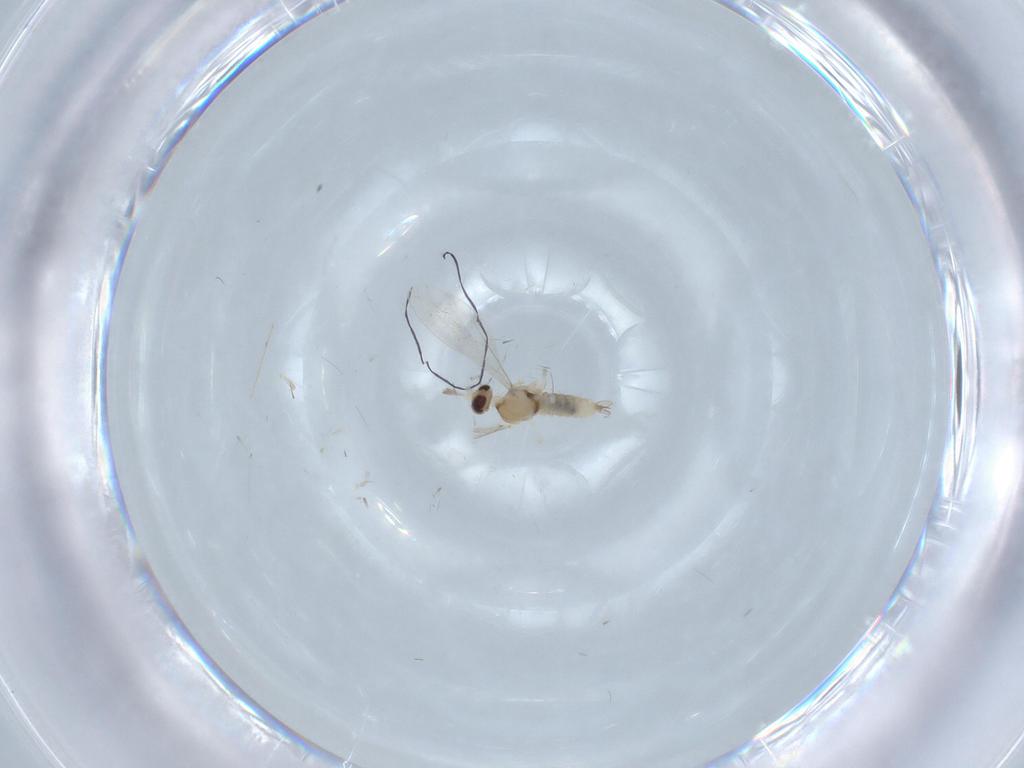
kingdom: Animalia
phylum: Arthropoda
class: Insecta
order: Diptera
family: Cecidomyiidae
